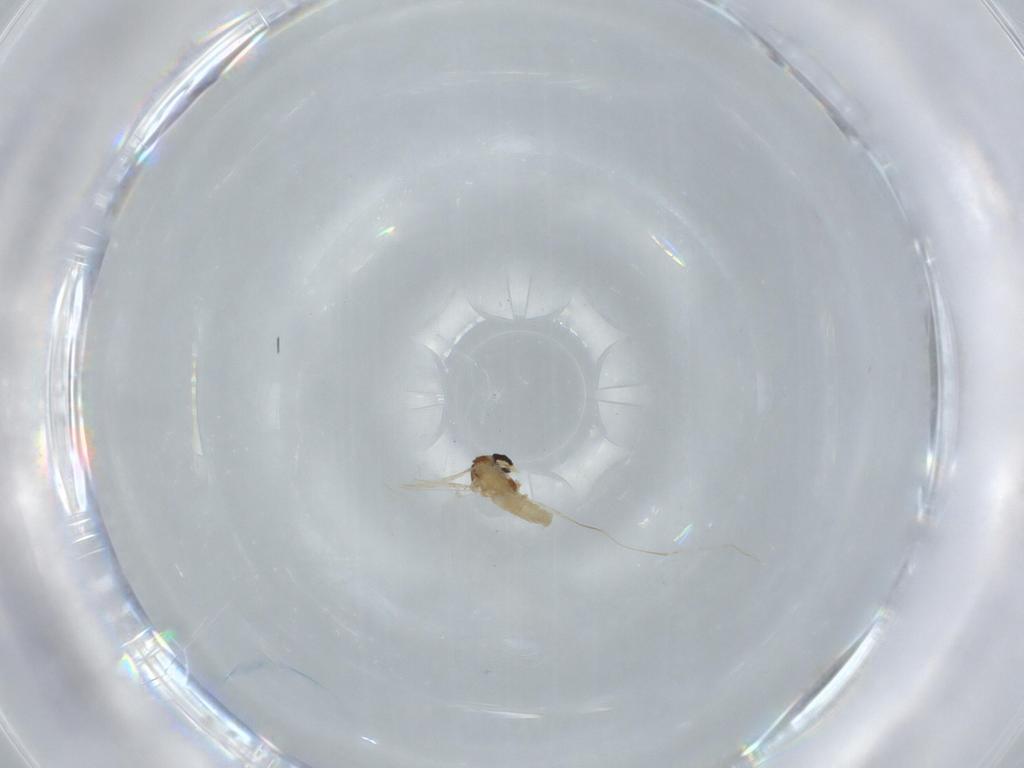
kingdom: Animalia
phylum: Arthropoda
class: Insecta
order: Diptera
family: Cecidomyiidae
